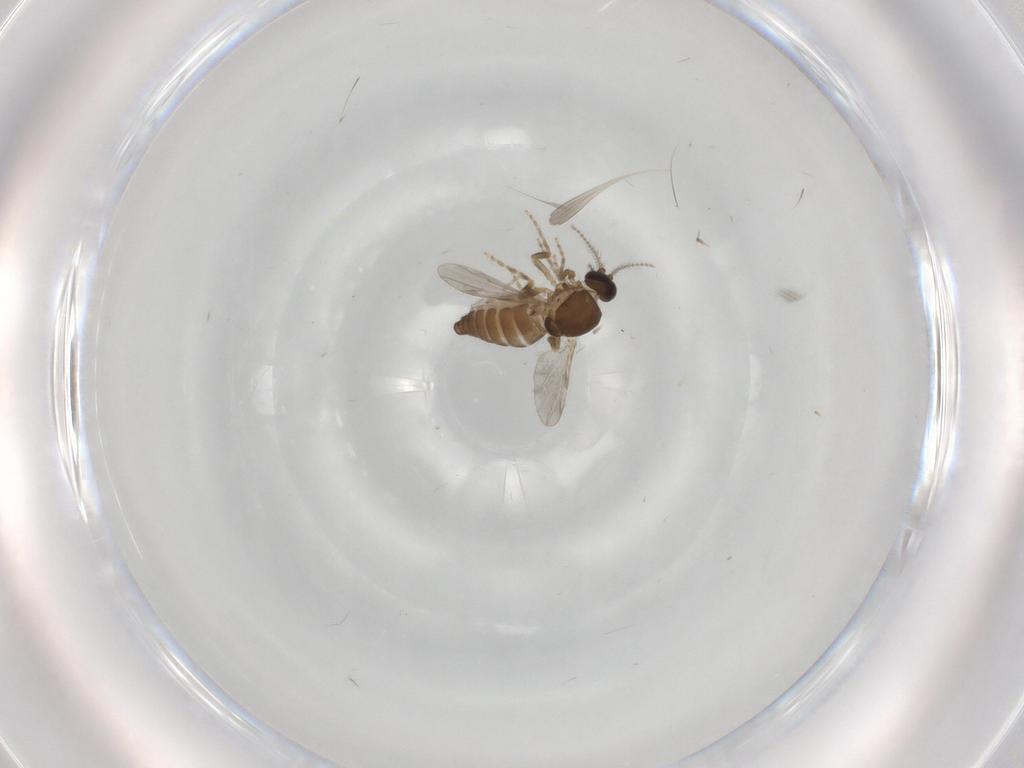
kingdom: Animalia
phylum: Arthropoda
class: Insecta
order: Diptera
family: Ceratopogonidae
